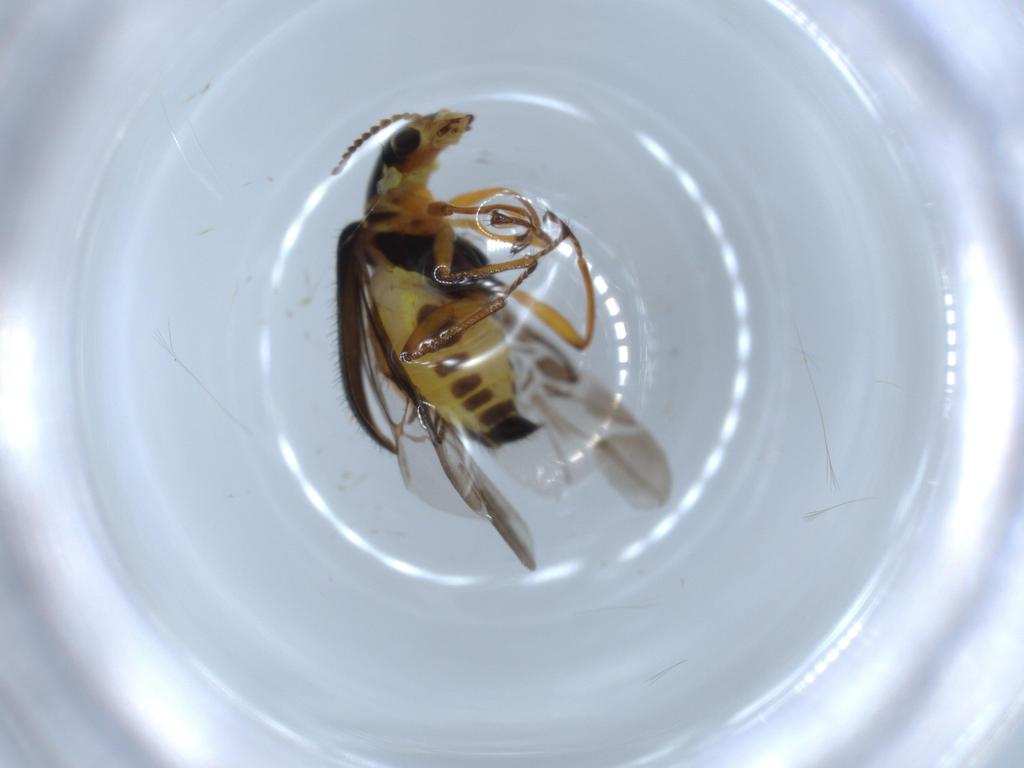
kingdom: Animalia
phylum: Arthropoda
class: Insecta
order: Coleoptera
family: Melyridae
